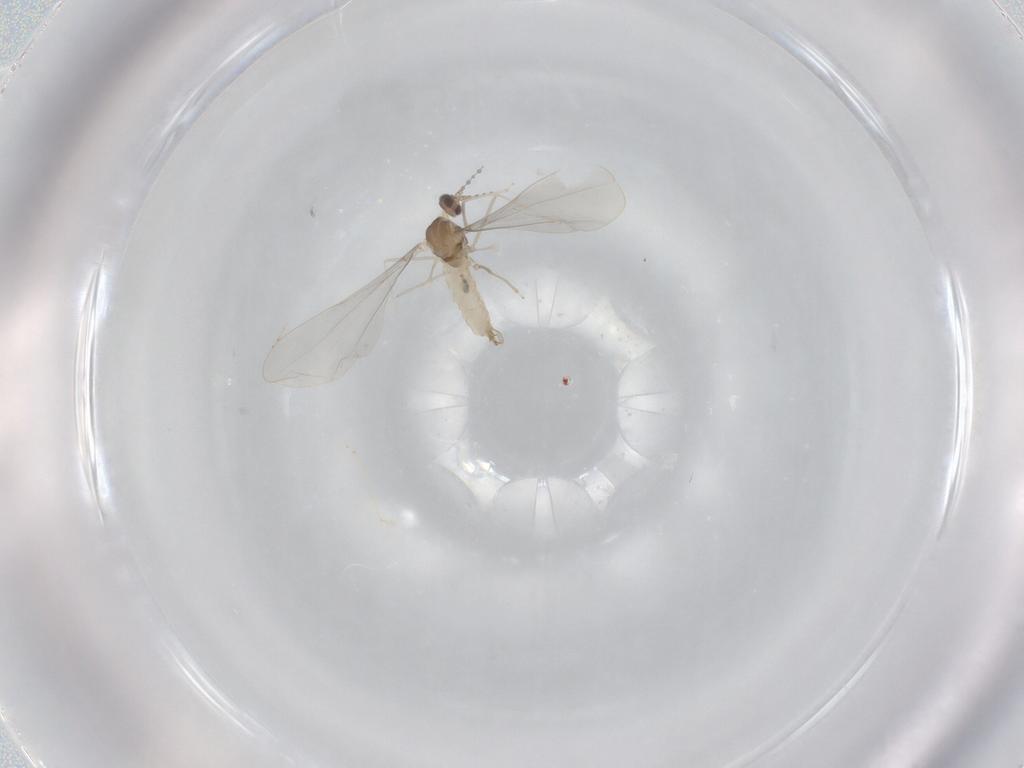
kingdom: Animalia
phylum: Arthropoda
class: Insecta
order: Diptera
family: Cecidomyiidae
